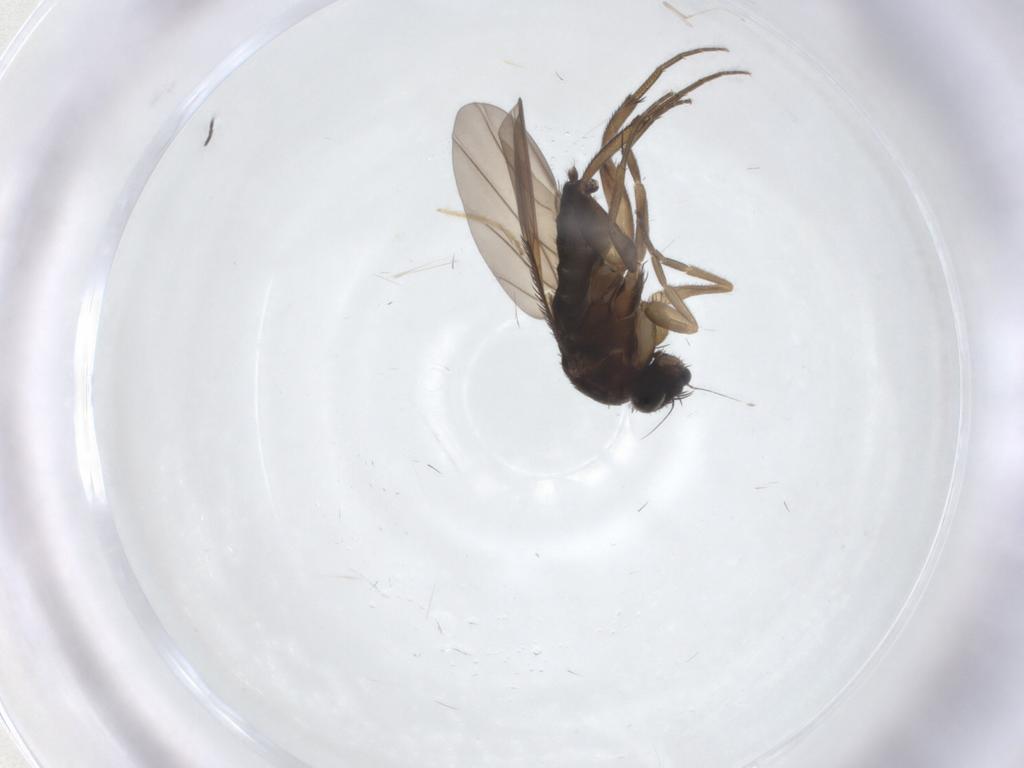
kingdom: Animalia
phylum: Arthropoda
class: Insecta
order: Diptera
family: Phoridae
